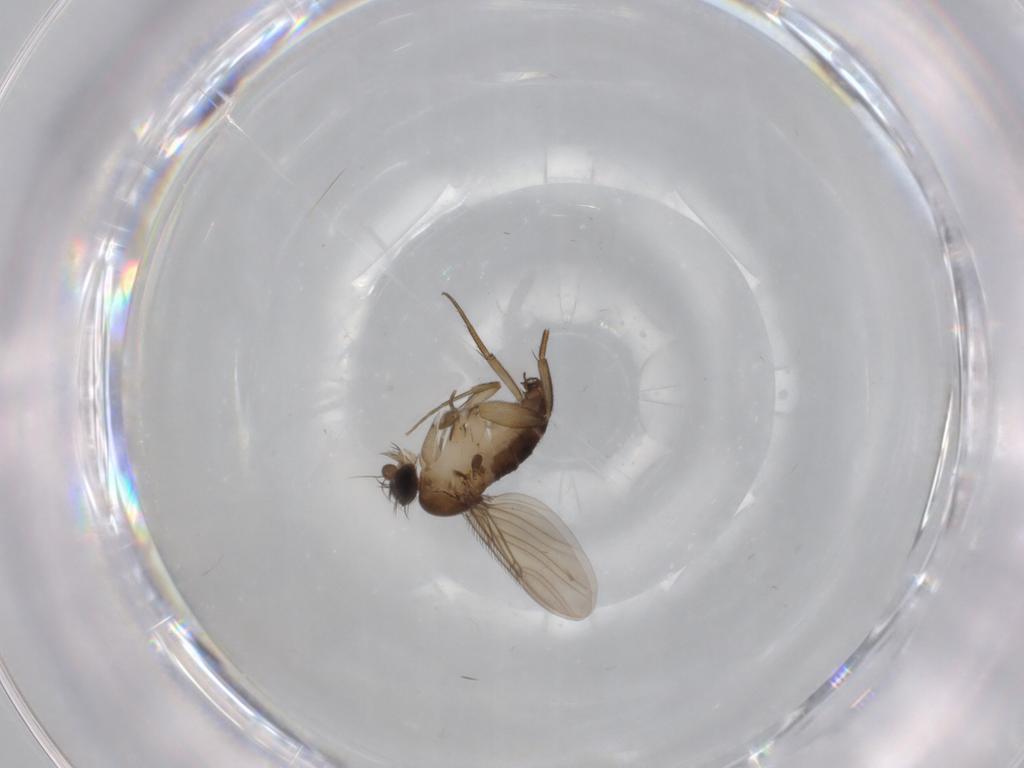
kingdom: Animalia
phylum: Arthropoda
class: Insecta
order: Diptera
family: Phoridae
